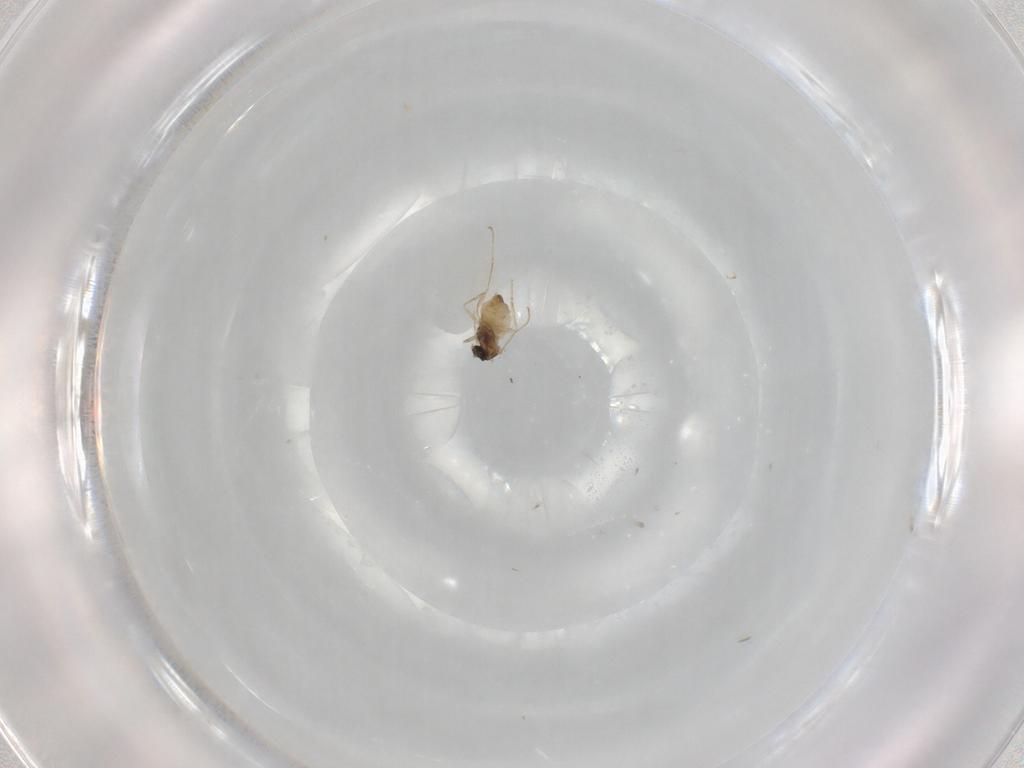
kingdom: Animalia
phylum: Arthropoda
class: Insecta
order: Diptera
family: Cecidomyiidae
